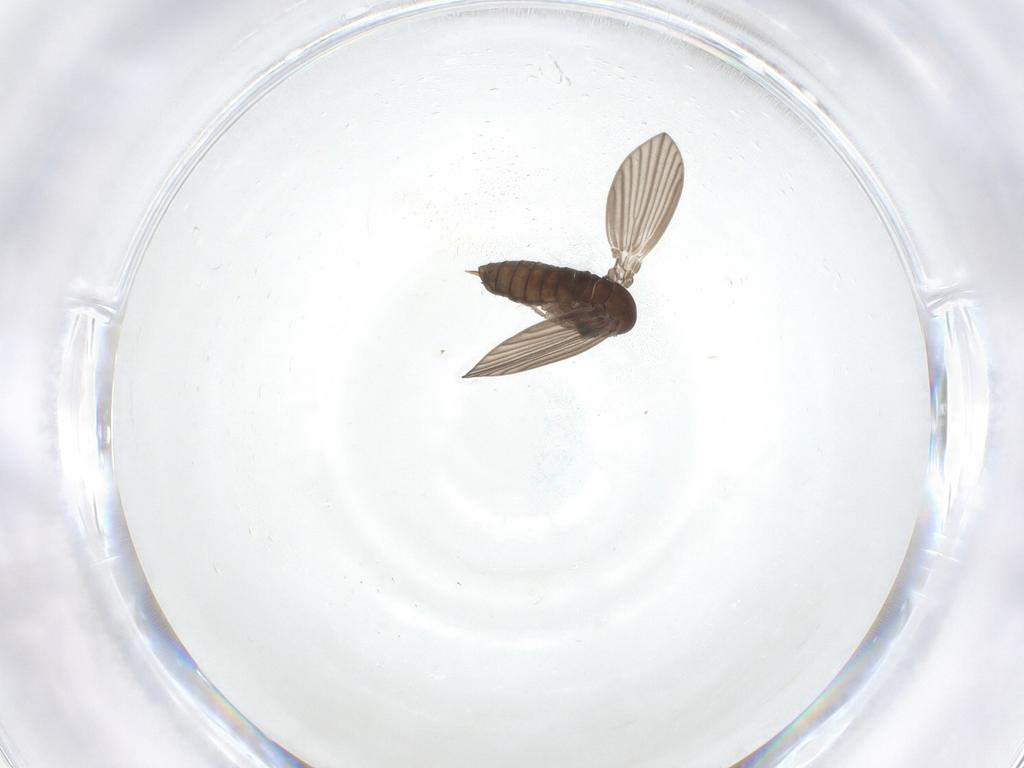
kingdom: Animalia
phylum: Arthropoda
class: Insecta
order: Diptera
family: Psychodidae
